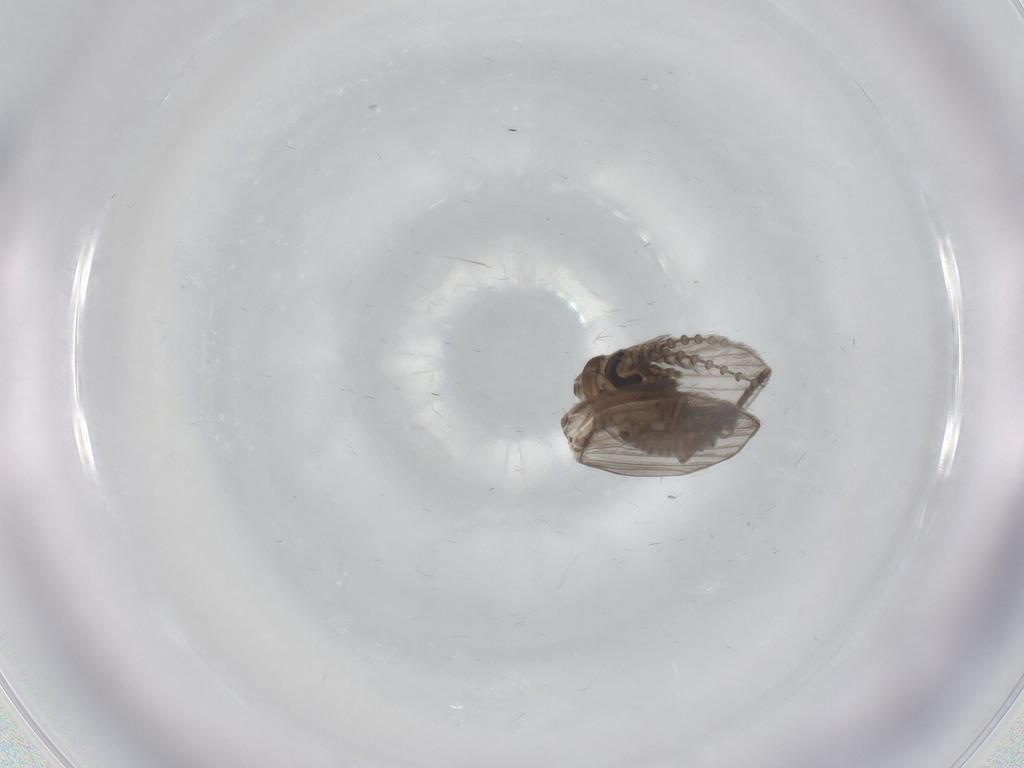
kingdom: Animalia
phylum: Arthropoda
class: Insecta
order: Diptera
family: Psychodidae
